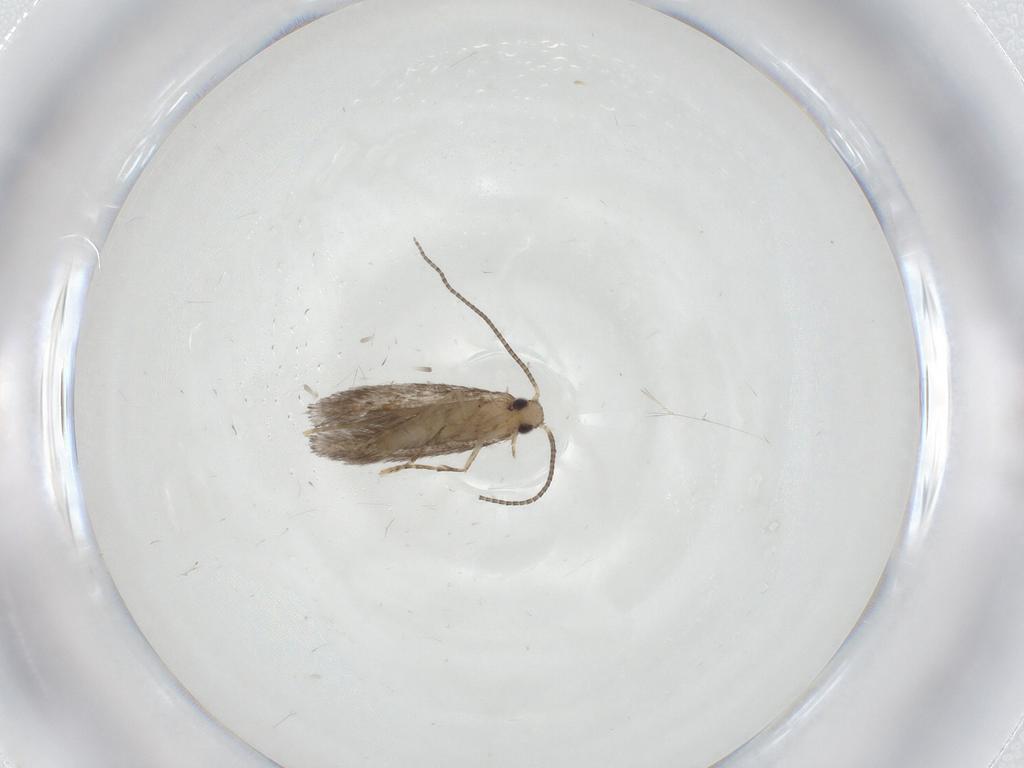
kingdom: Animalia
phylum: Arthropoda
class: Insecta
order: Lepidoptera
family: Gracillariidae
